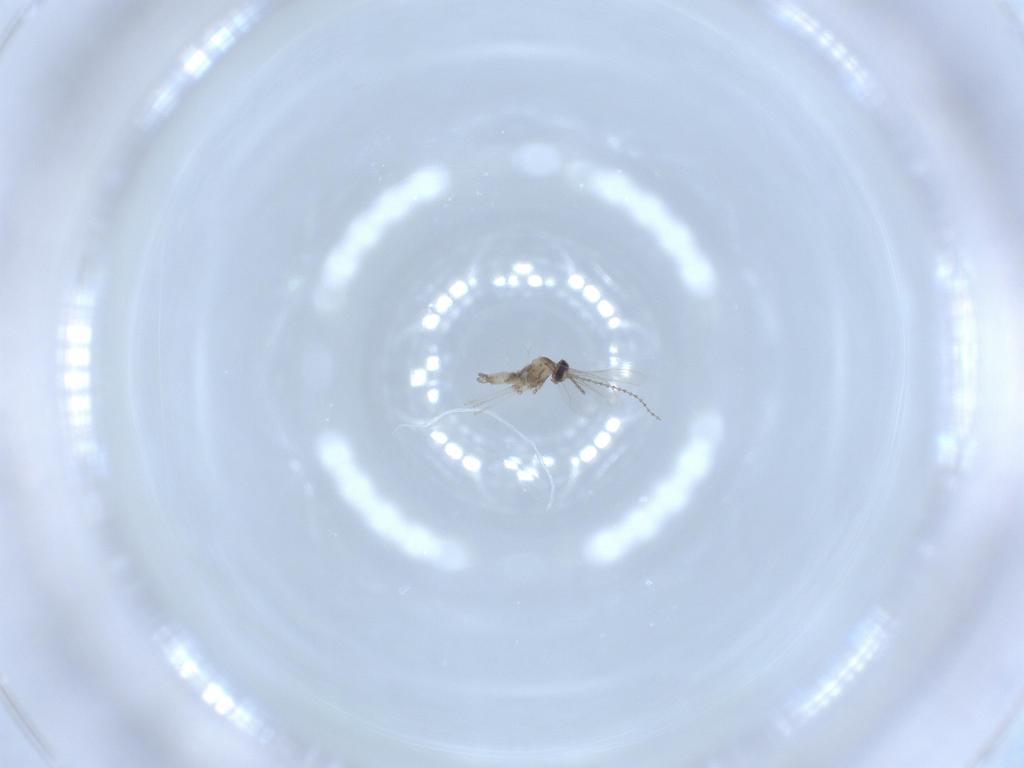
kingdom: Animalia
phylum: Arthropoda
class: Insecta
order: Diptera
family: Cecidomyiidae
